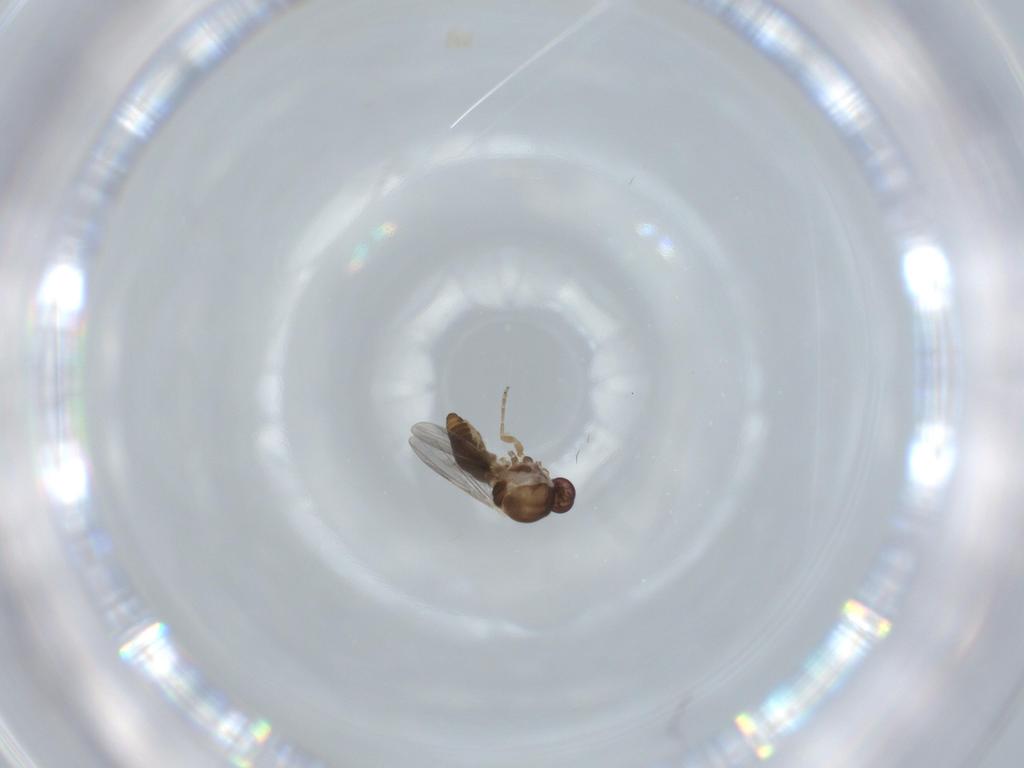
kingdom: Animalia
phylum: Arthropoda
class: Insecta
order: Diptera
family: Ceratopogonidae
